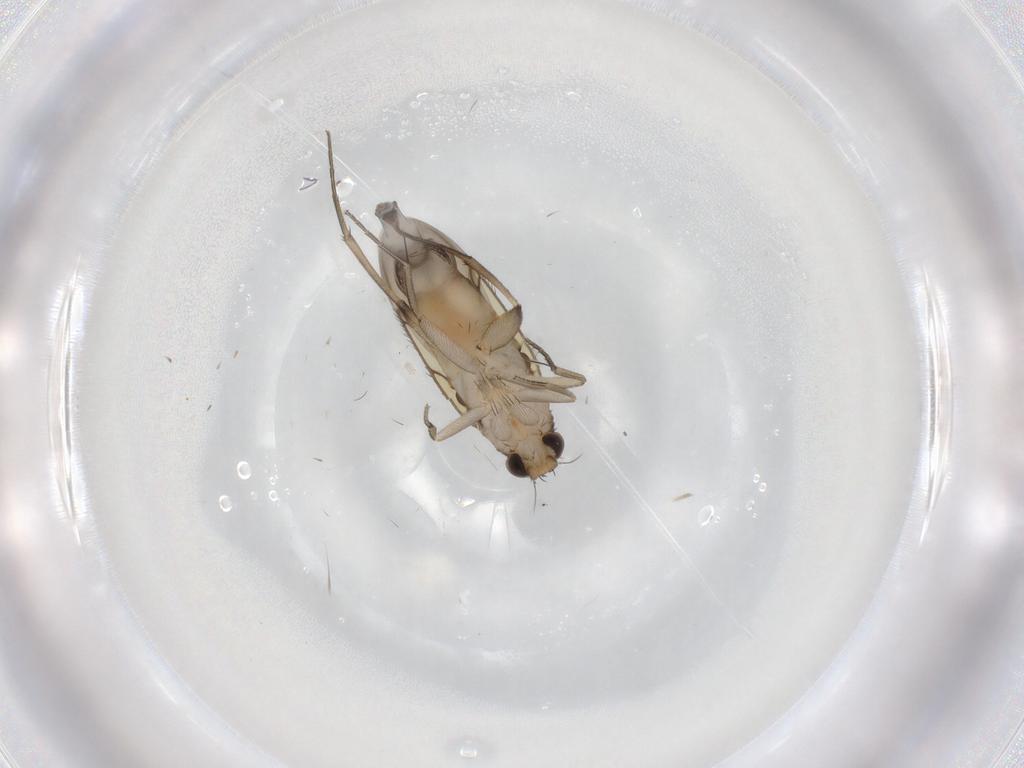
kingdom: Animalia
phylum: Arthropoda
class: Insecta
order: Diptera
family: Phoridae
